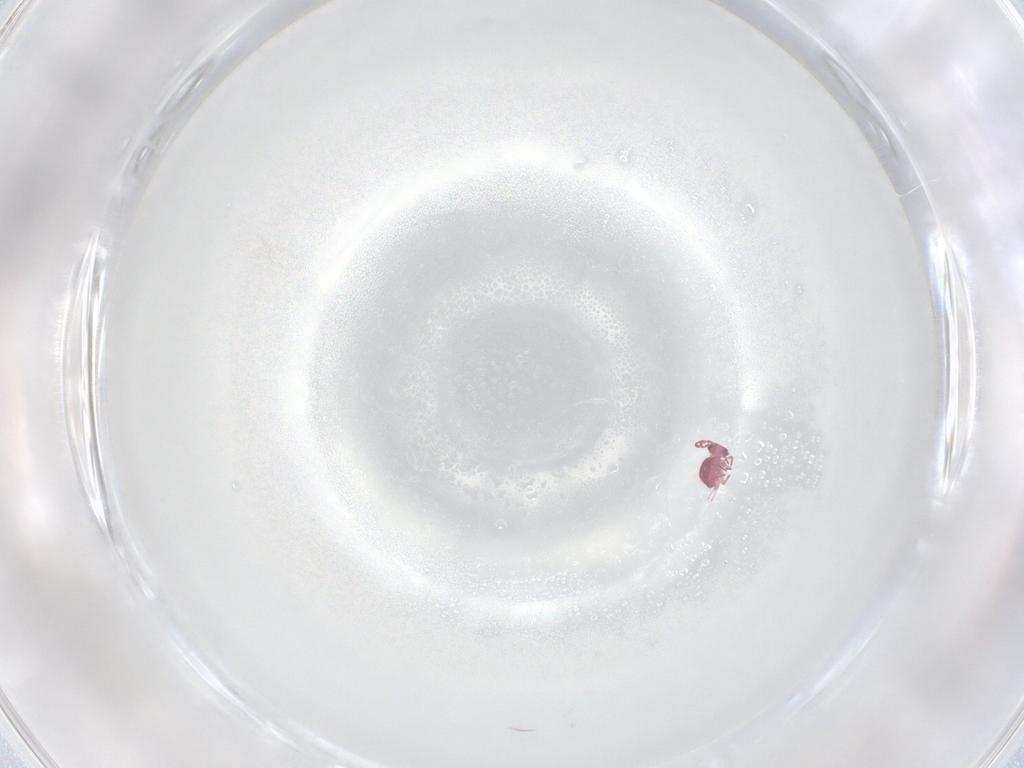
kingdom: Animalia
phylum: Arthropoda
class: Collembola
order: Symphypleona
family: Sminthurididae
